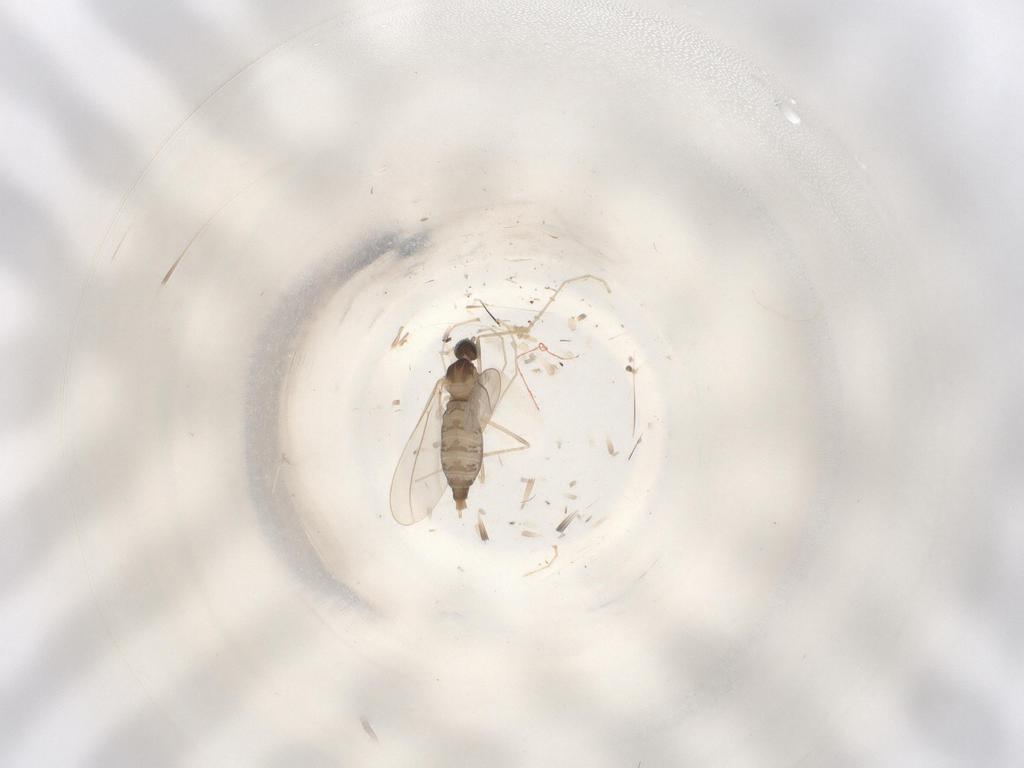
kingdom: Animalia
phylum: Arthropoda
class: Insecta
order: Diptera
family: Cecidomyiidae
